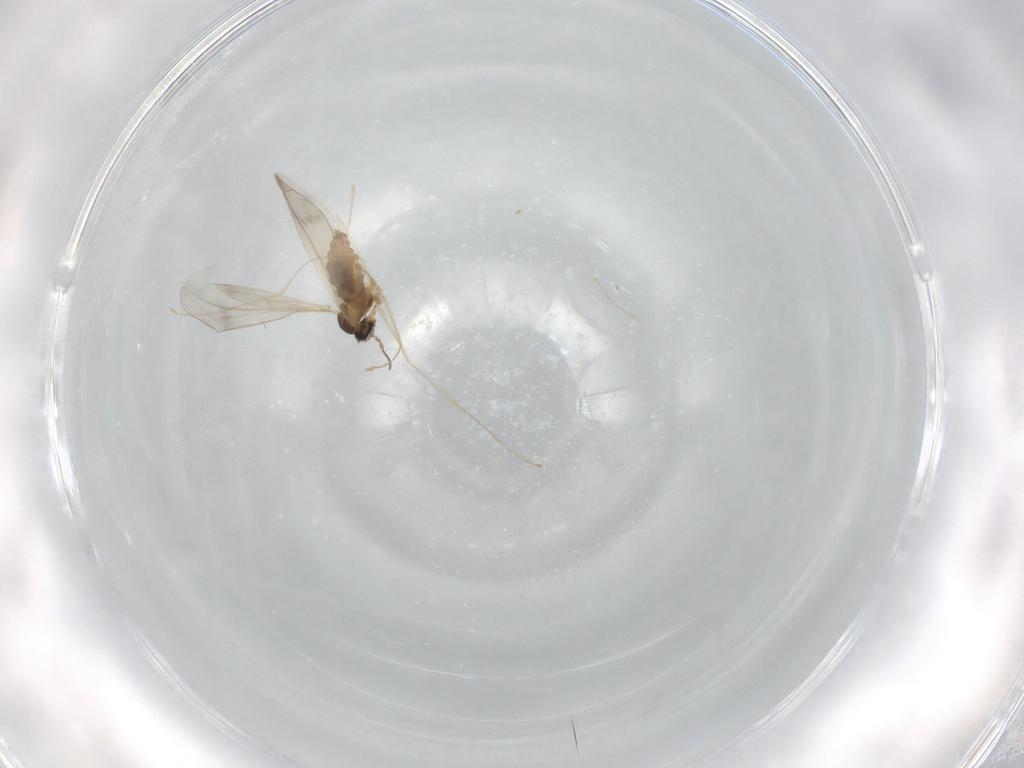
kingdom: Animalia
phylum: Arthropoda
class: Insecta
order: Diptera
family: Cecidomyiidae
